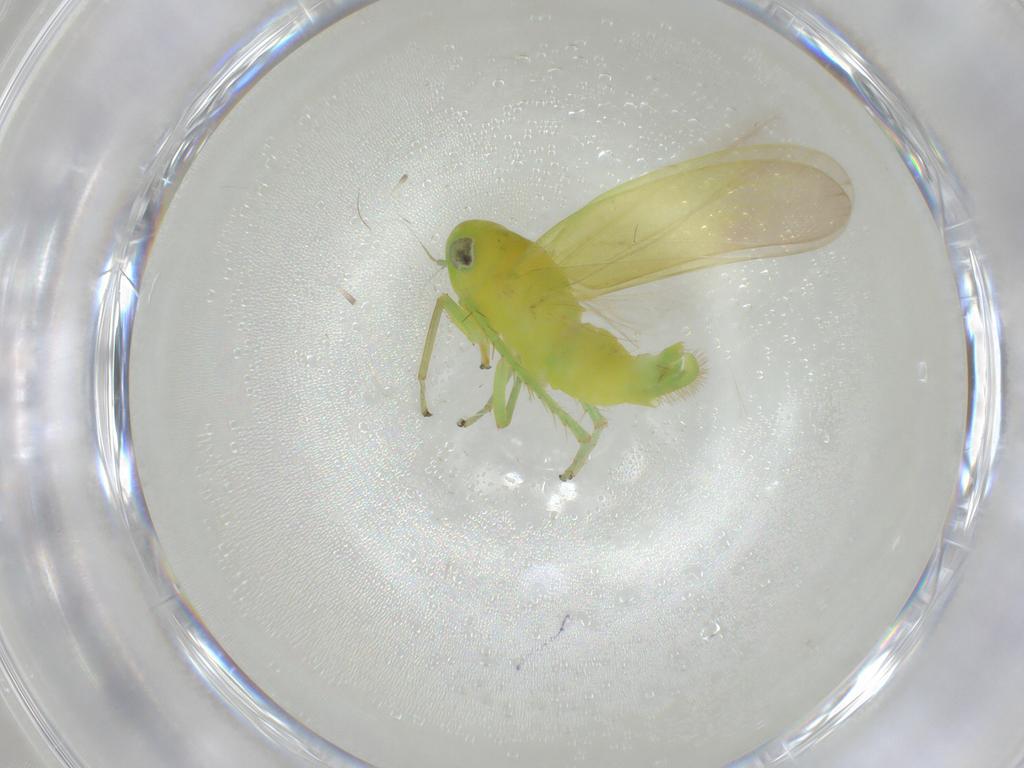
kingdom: Animalia
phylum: Arthropoda
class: Insecta
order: Hemiptera
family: Cicadellidae
